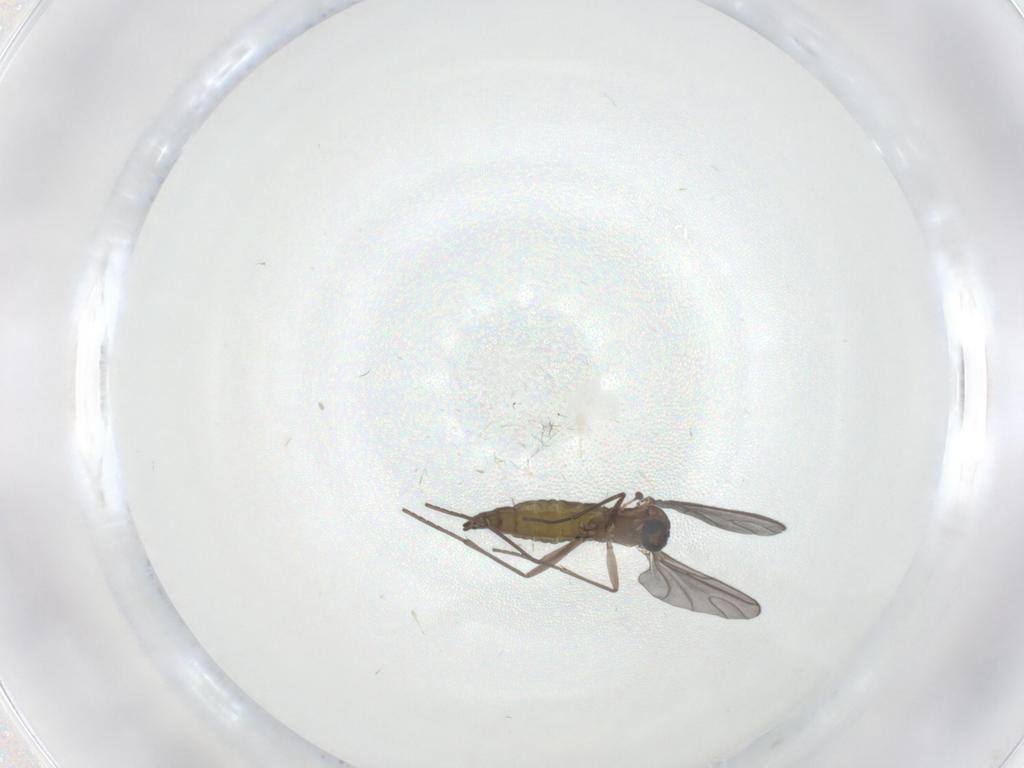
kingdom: Animalia
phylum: Arthropoda
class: Insecta
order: Diptera
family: Sciaridae
